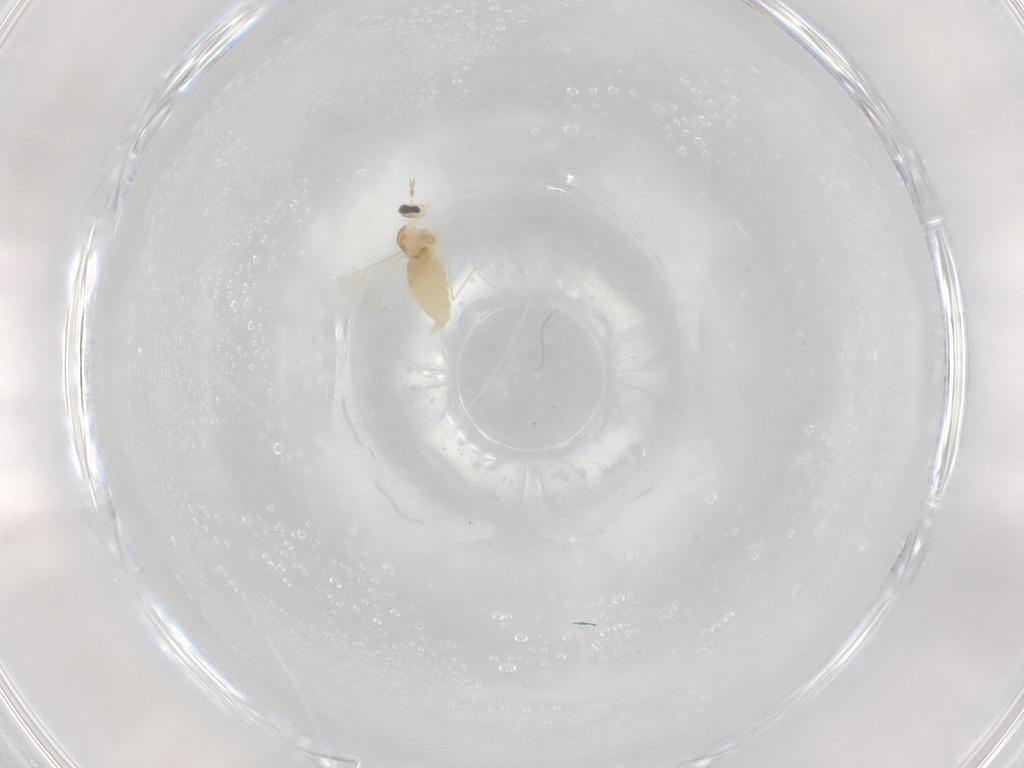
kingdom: Animalia
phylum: Arthropoda
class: Insecta
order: Diptera
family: Cecidomyiidae
